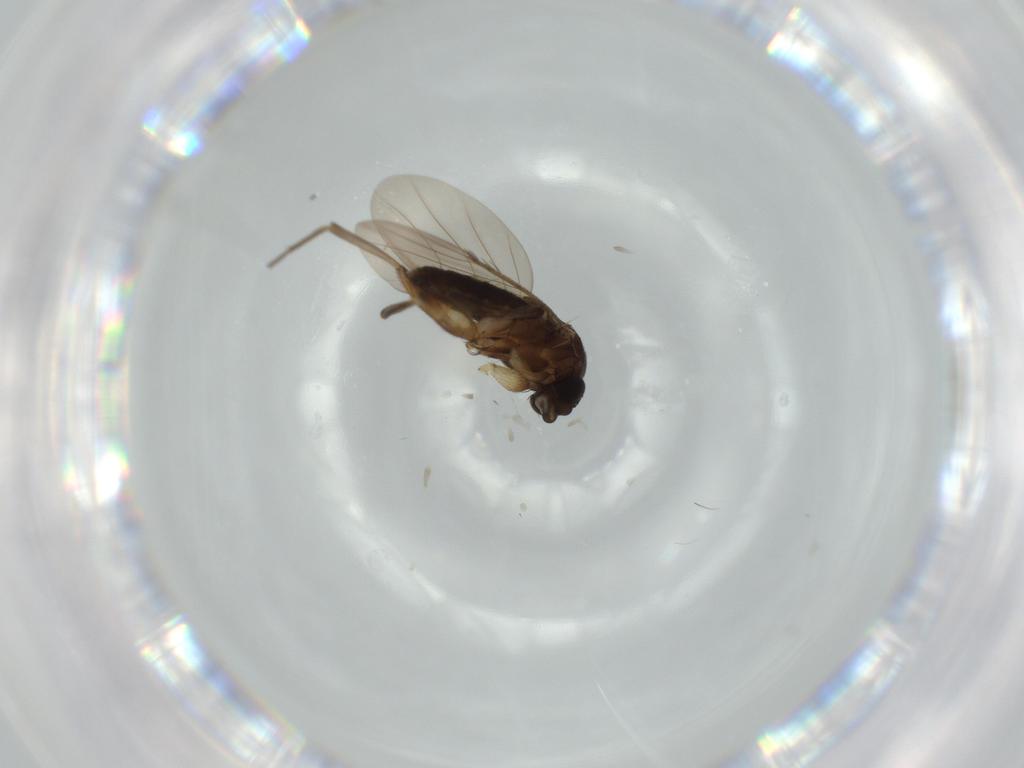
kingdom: Animalia
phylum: Arthropoda
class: Insecta
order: Diptera
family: Phoridae
